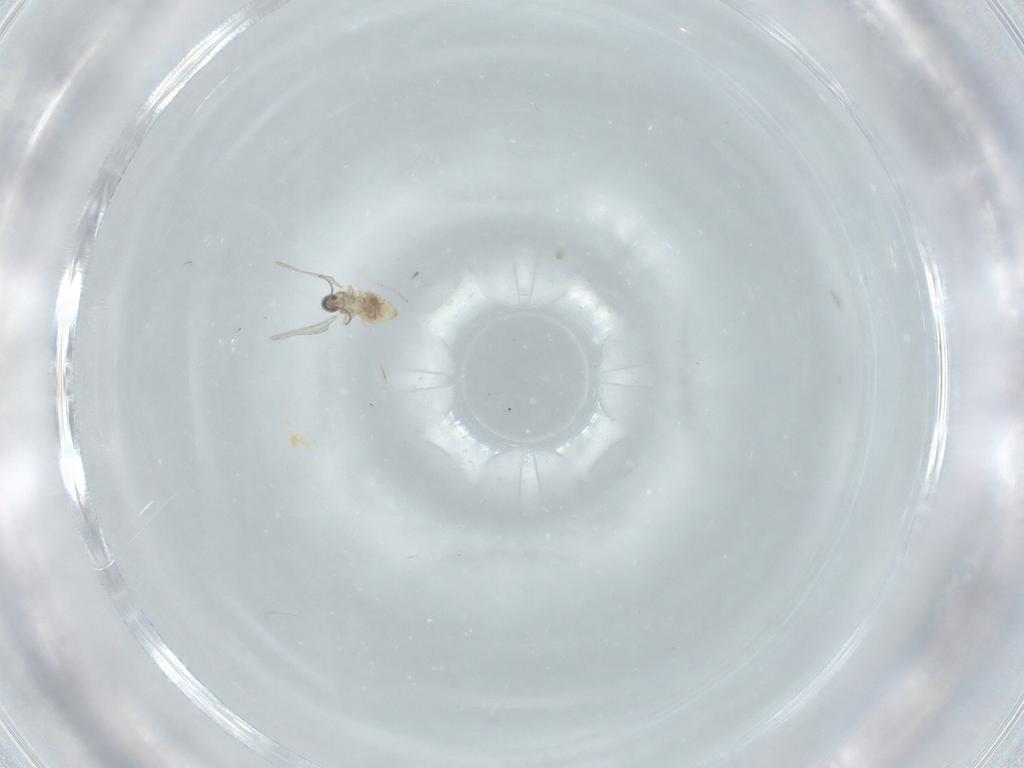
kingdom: Animalia
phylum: Arthropoda
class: Insecta
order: Diptera
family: Cecidomyiidae
